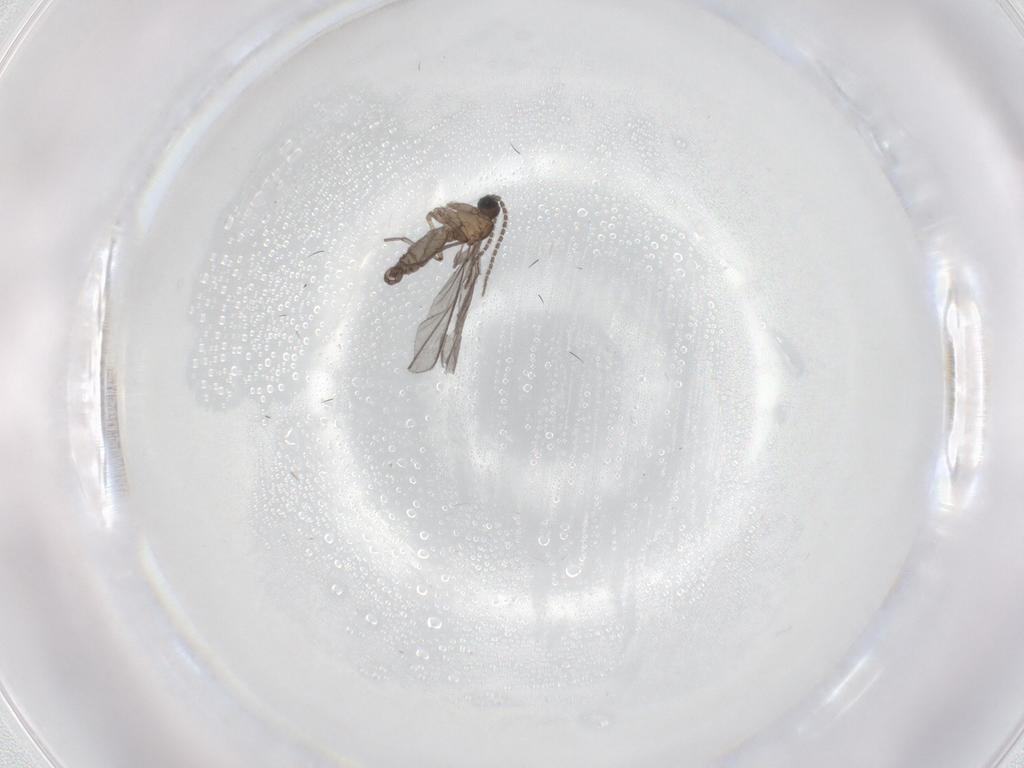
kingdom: Animalia
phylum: Arthropoda
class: Insecta
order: Diptera
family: Sciaridae
